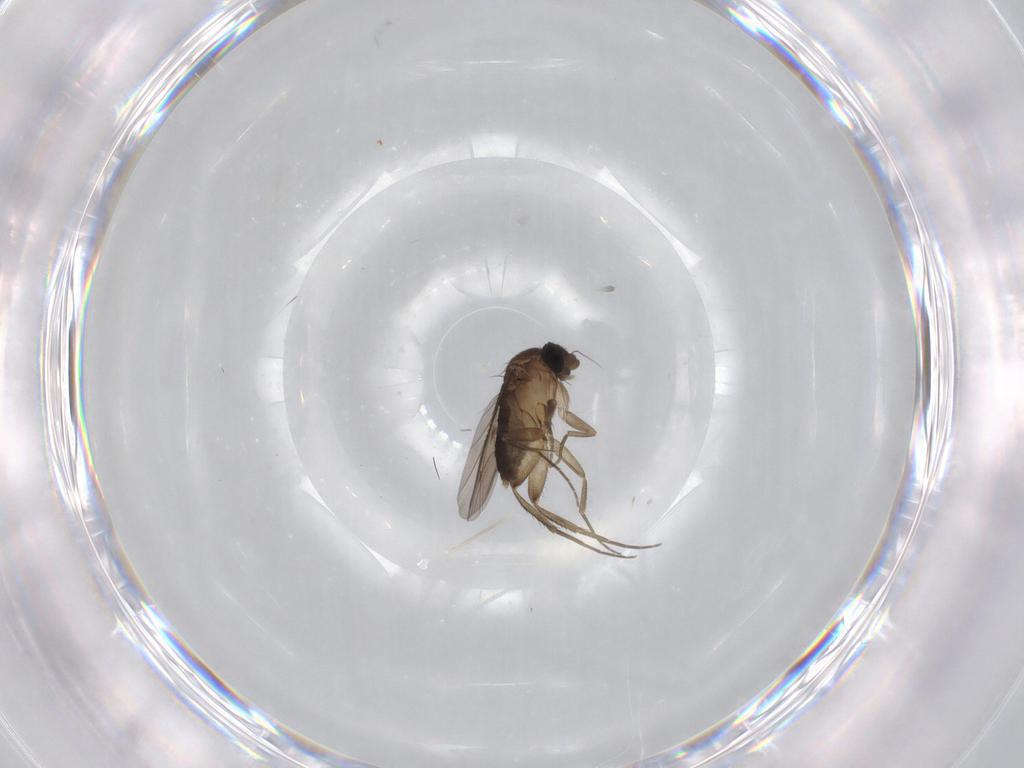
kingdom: Animalia
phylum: Arthropoda
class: Insecta
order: Diptera
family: Phoridae
